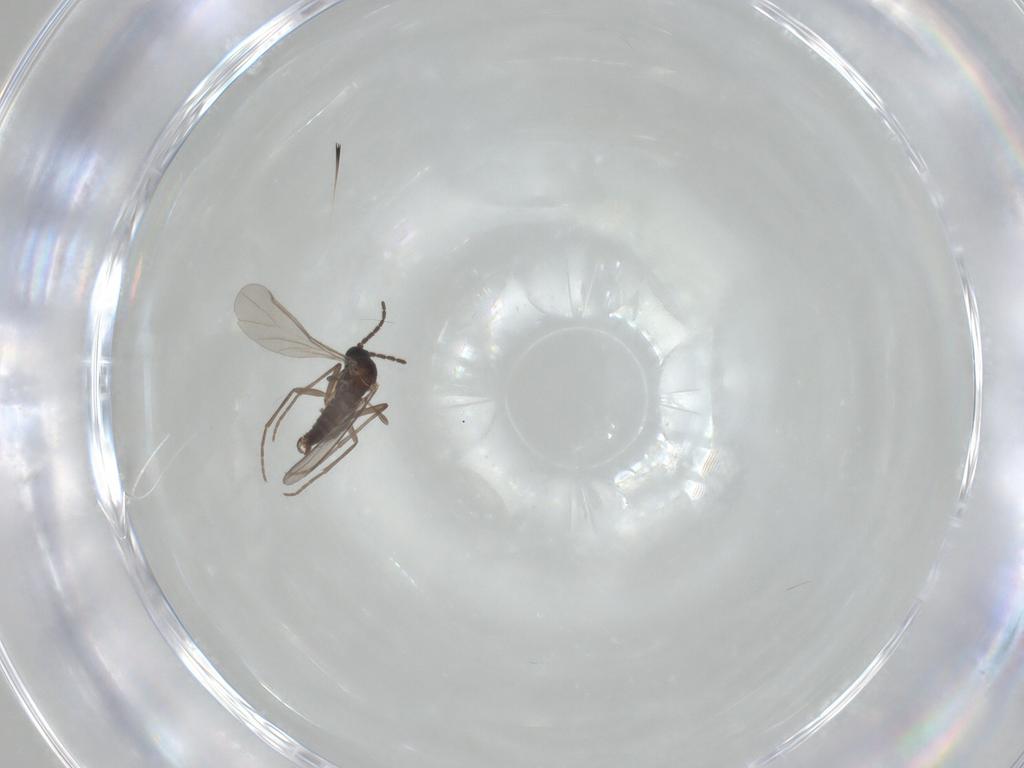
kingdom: Animalia
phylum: Arthropoda
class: Insecta
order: Diptera
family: Sciaridae
